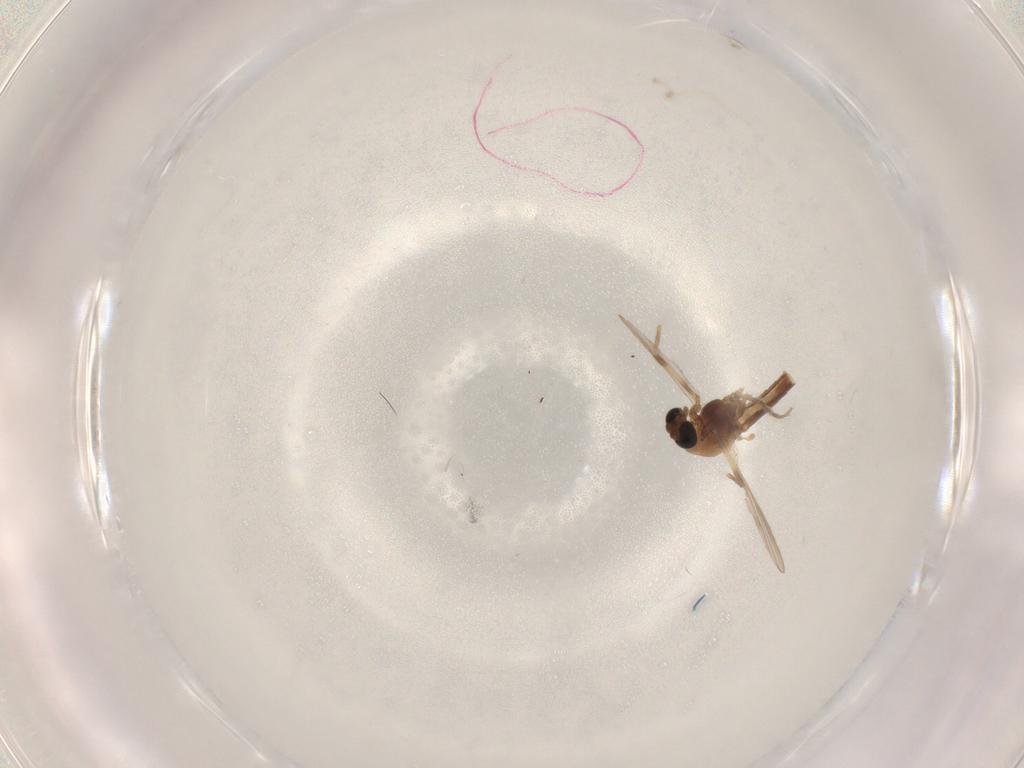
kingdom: Animalia
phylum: Arthropoda
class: Insecta
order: Diptera
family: Chironomidae
